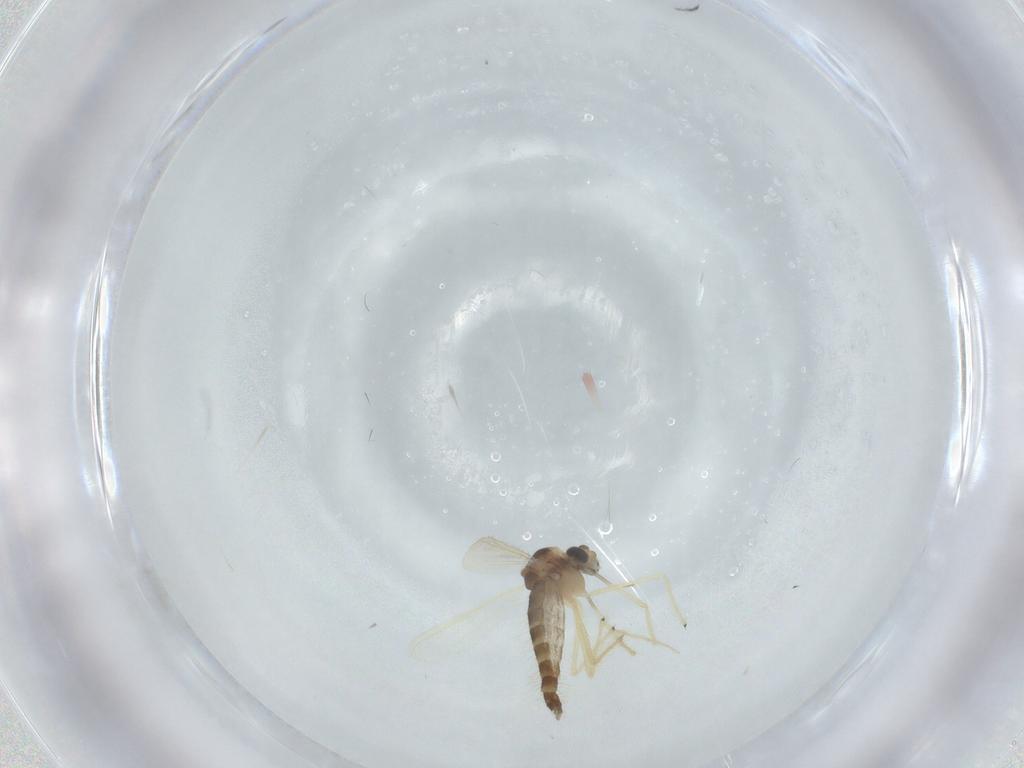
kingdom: Animalia
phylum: Arthropoda
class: Insecta
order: Diptera
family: Chironomidae
